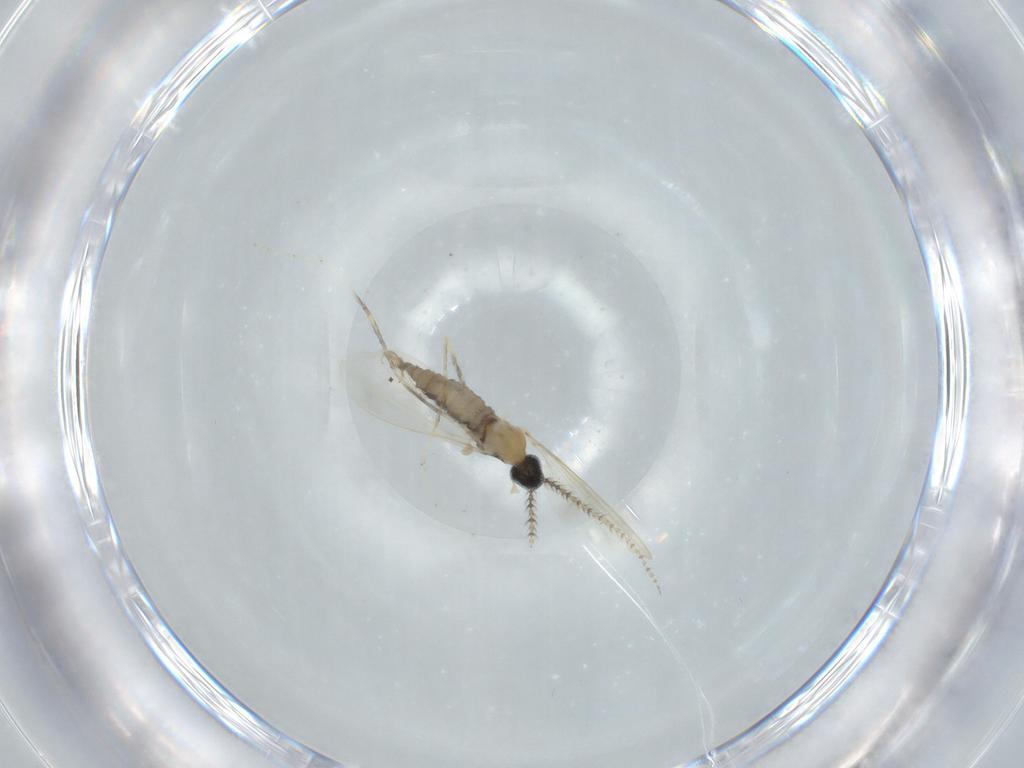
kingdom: Animalia
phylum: Arthropoda
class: Insecta
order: Diptera
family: Cecidomyiidae
